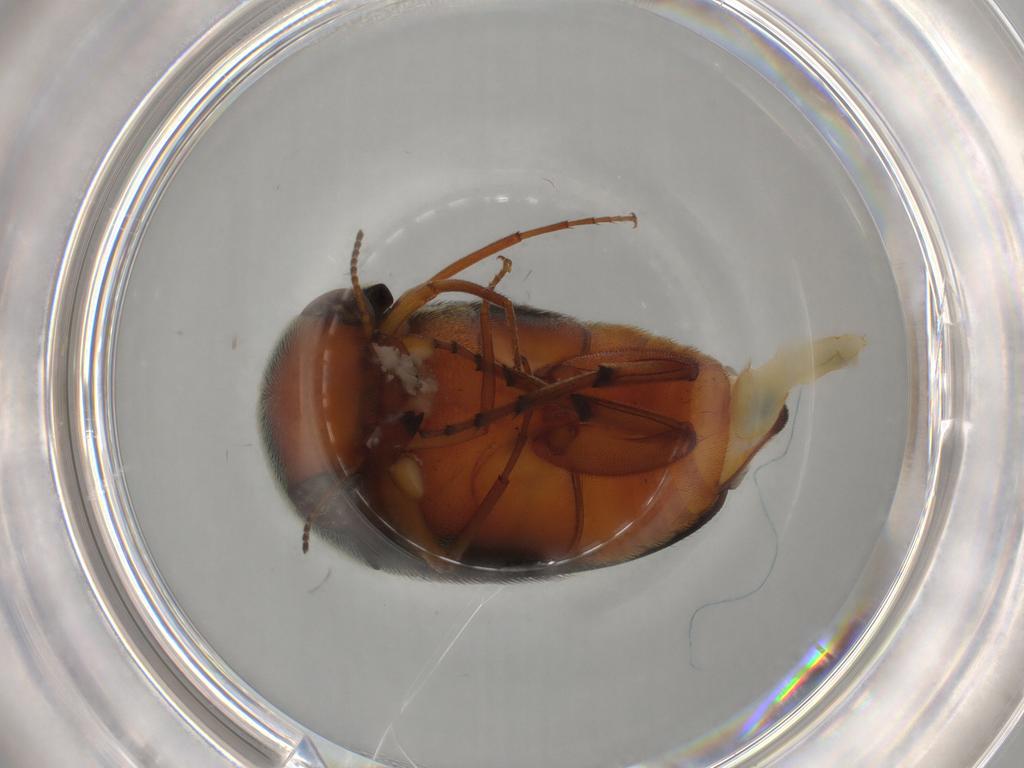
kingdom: Animalia
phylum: Arthropoda
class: Insecta
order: Coleoptera
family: Mordellidae
